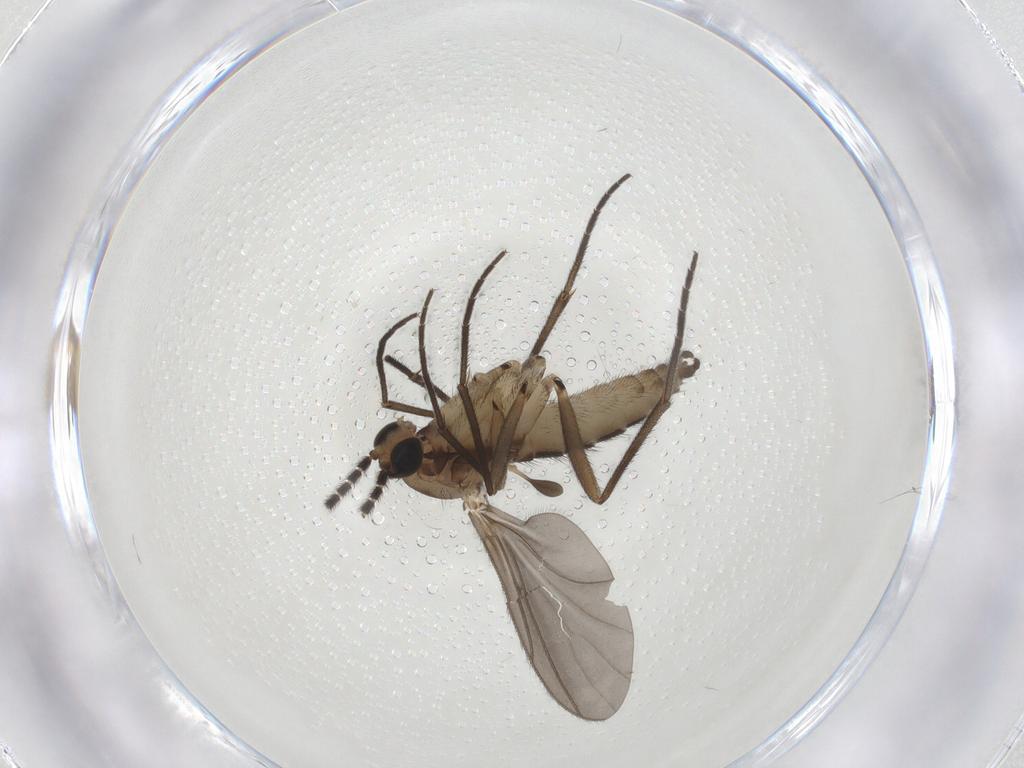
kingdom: Animalia
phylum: Arthropoda
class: Insecta
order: Diptera
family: Sciaridae
